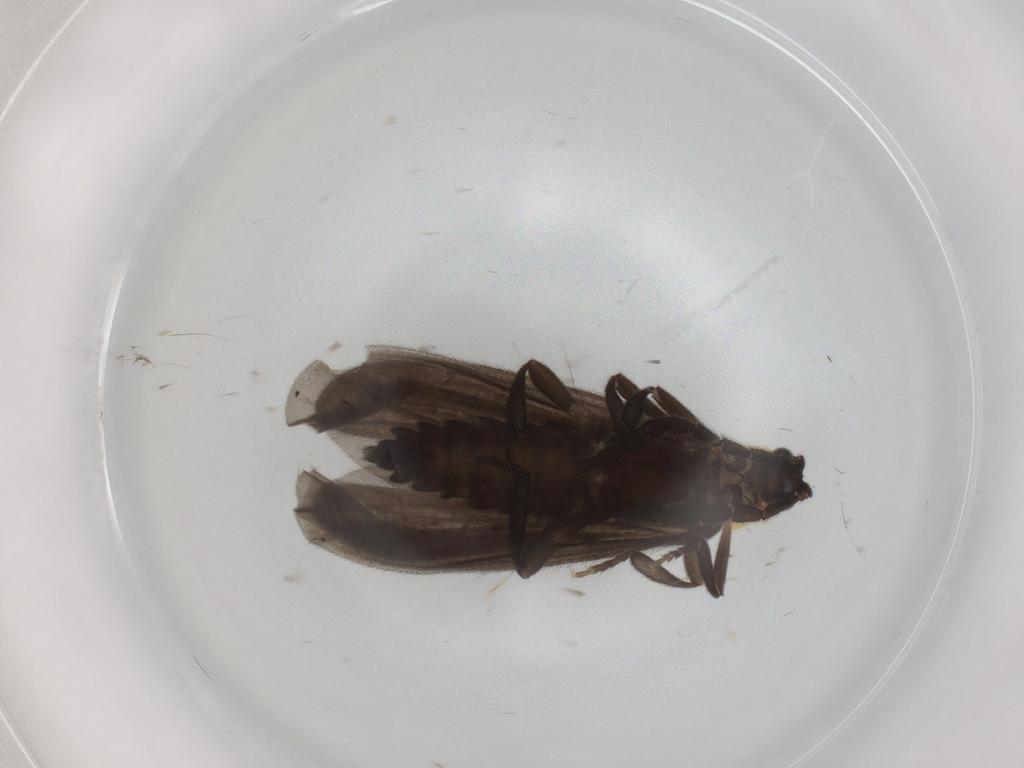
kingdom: Animalia
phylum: Arthropoda
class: Insecta
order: Coleoptera
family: Lycidae
